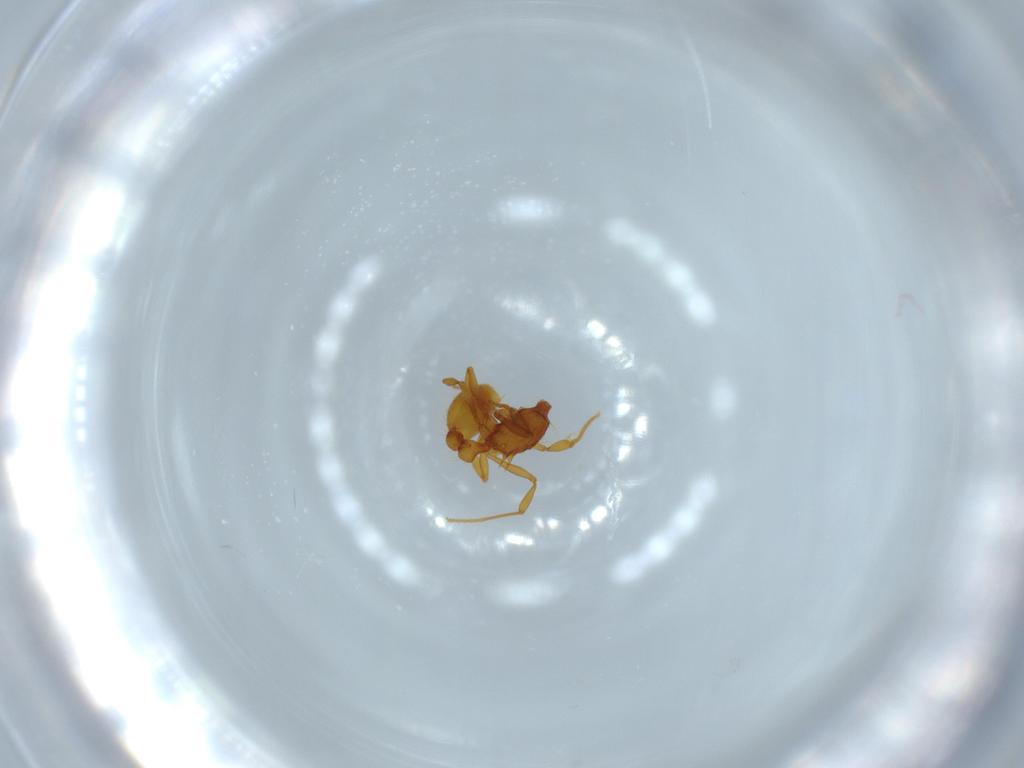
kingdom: Animalia
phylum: Arthropoda
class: Insecta
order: Hymenoptera
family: Formicidae
